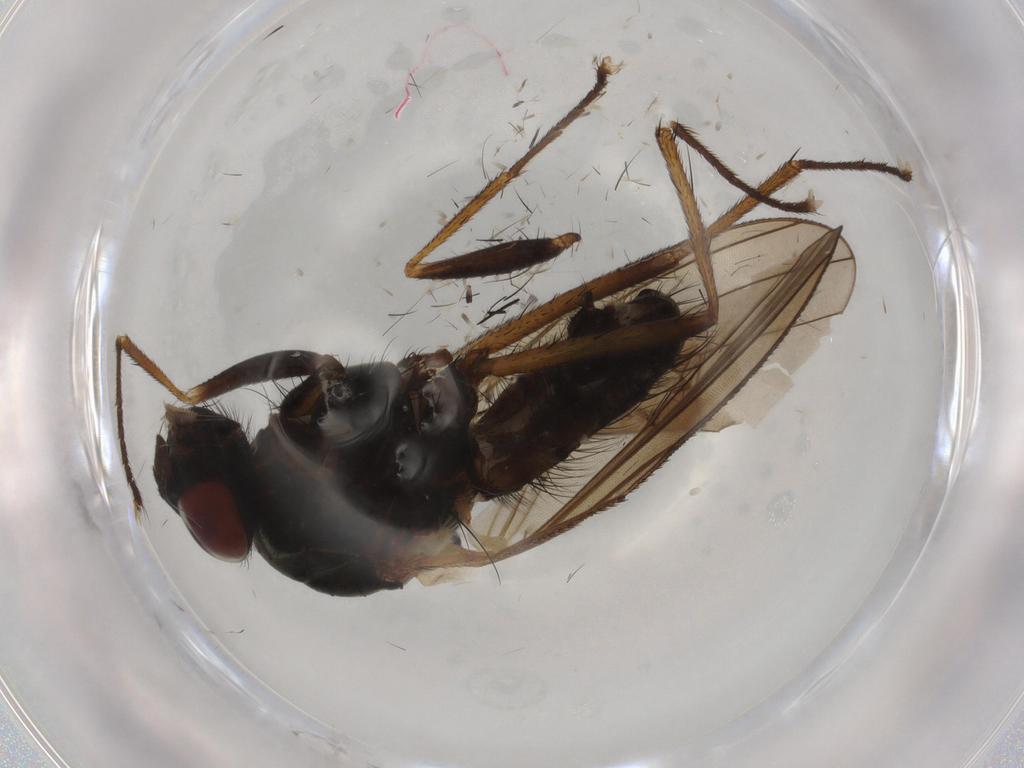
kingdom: Animalia
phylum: Arthropoda
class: Insecta
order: Diptera
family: Anthomyiidae
